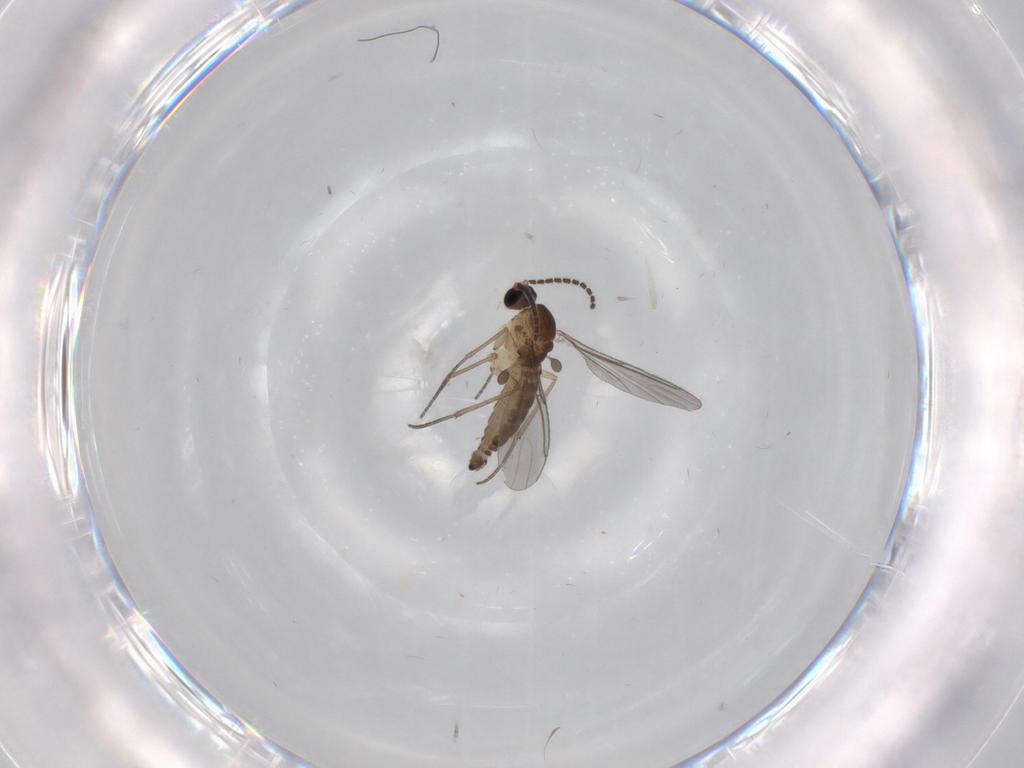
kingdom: Animalia
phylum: Arthropoda
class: Insecta
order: Diptera
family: Sciaridae
